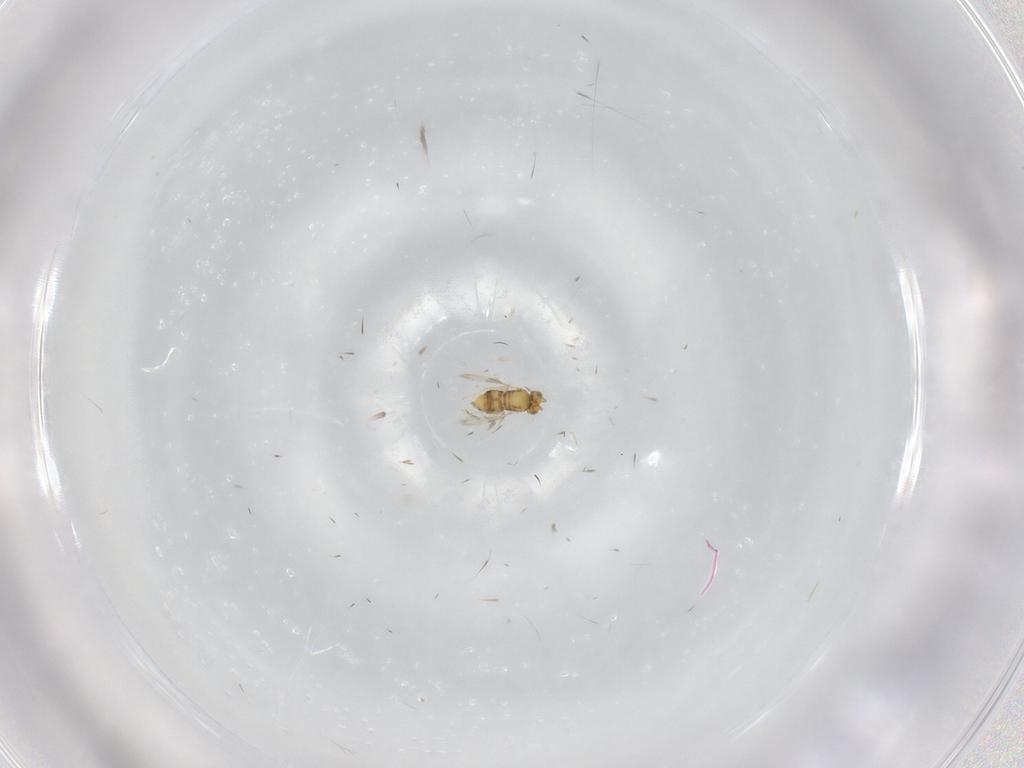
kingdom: Animalia
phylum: Arthropoda
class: Insecta
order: Hymenoptera
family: Aphelinidae
